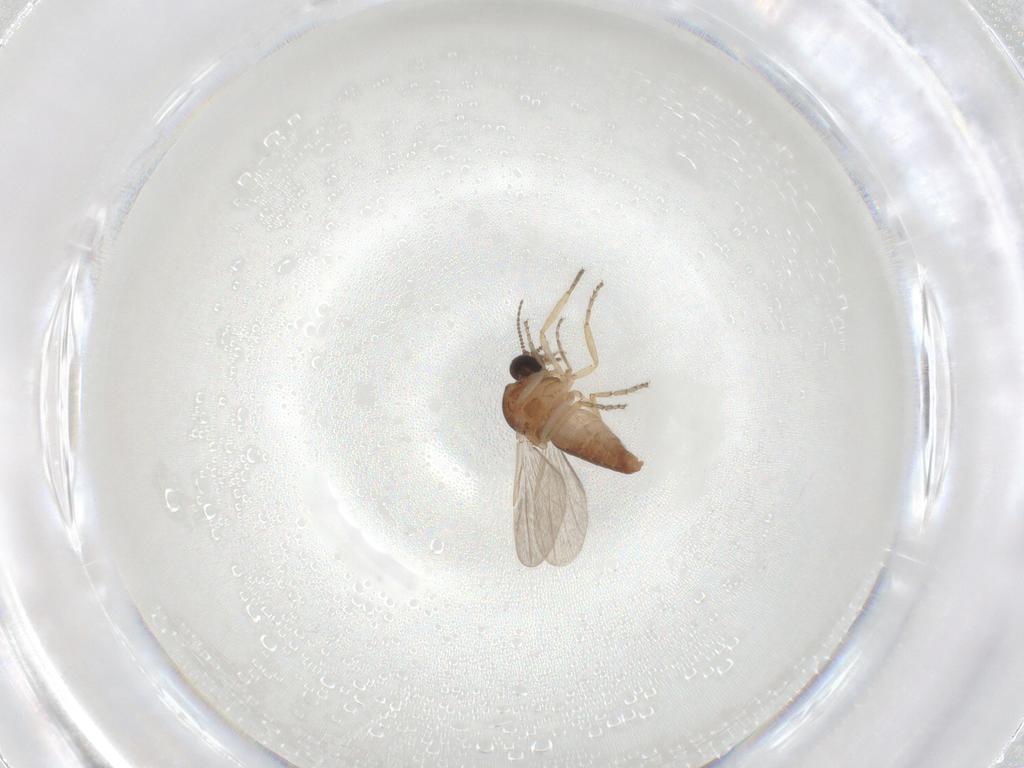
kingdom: Animalia
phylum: Arthropoda
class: Insecta
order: Diptera
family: Ceratopogonidae
